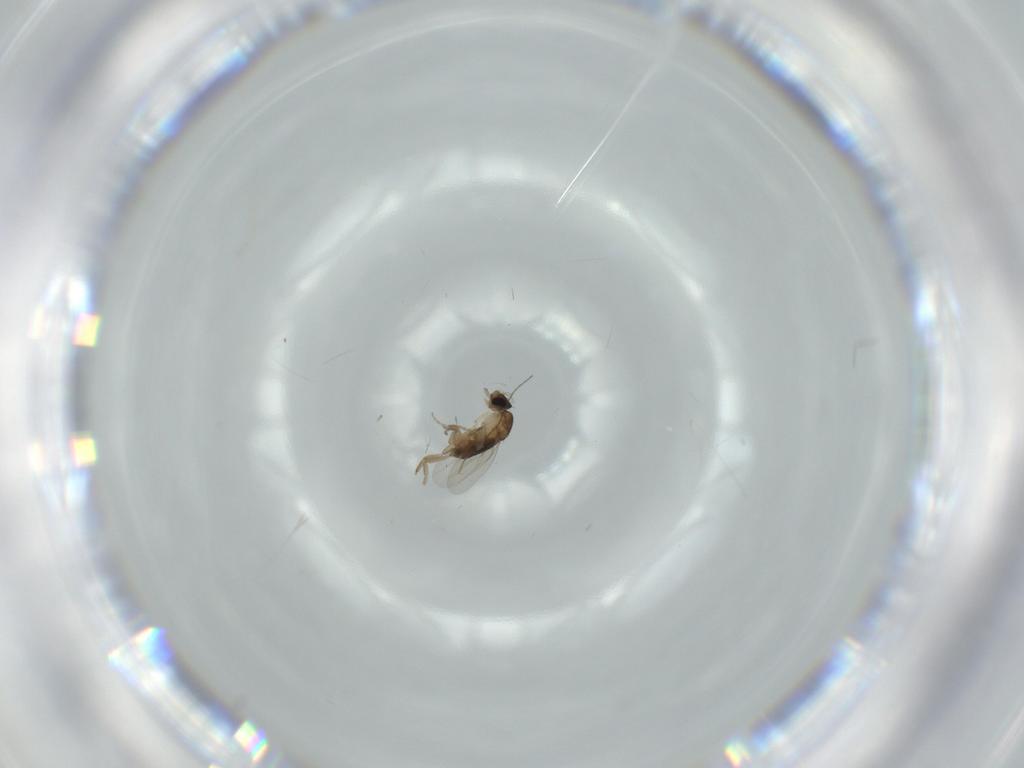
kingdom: Animalia
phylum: Arthropoda
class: Insecta
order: Diptera
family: Phoridae
